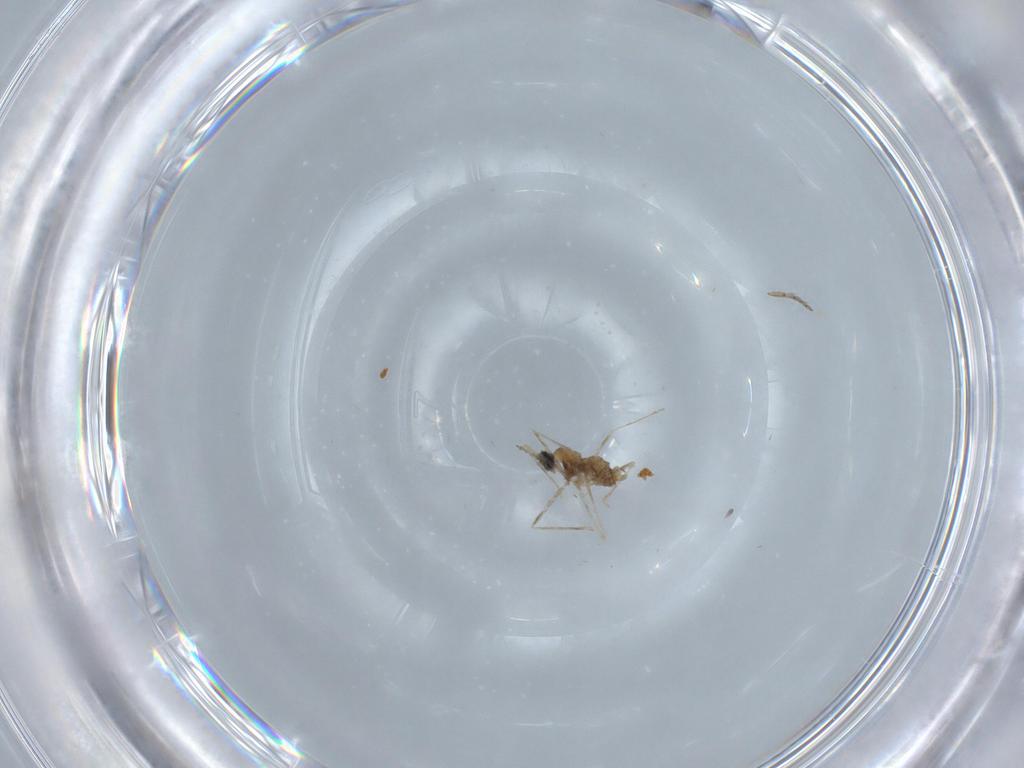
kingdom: Animalia
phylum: Arthropoda
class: Insecta
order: Diptera
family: Cecidomyiidae
